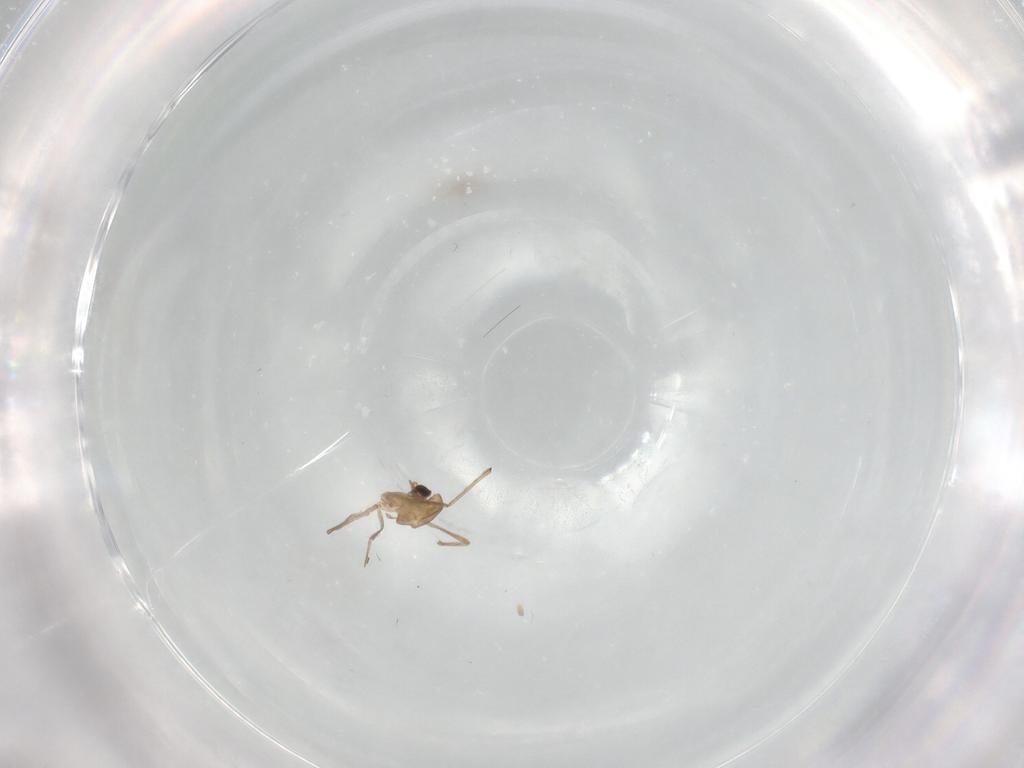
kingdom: Animalia
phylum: Arthropoda
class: Insecta
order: Diptera
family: Chironomidae
